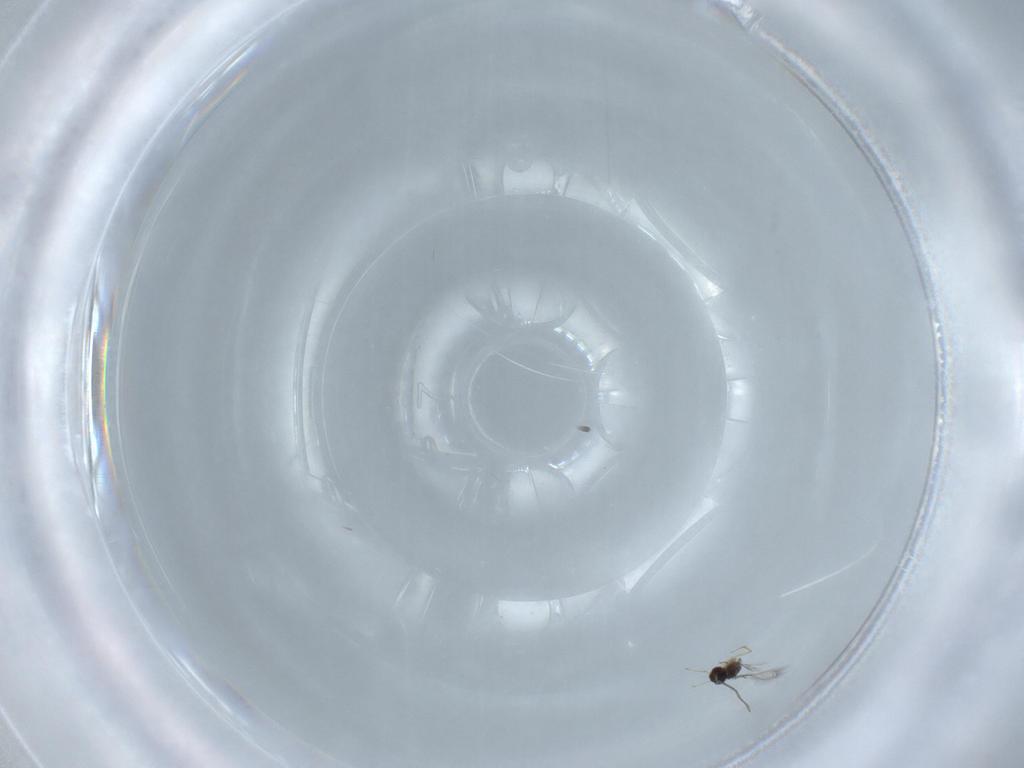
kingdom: Animalia
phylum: Arthropoda
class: Insecta
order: Hymenoptera
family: Mymaridae
